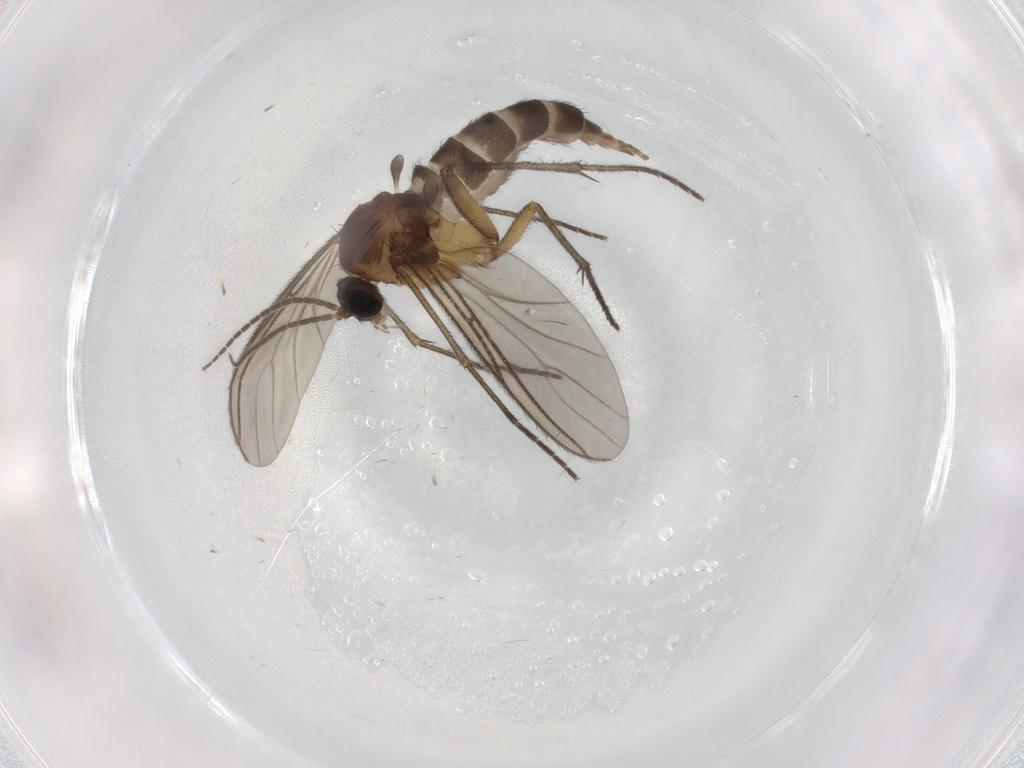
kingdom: Animalia
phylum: Arthropoda
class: Insecta
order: Diptera
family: Sciaridae
